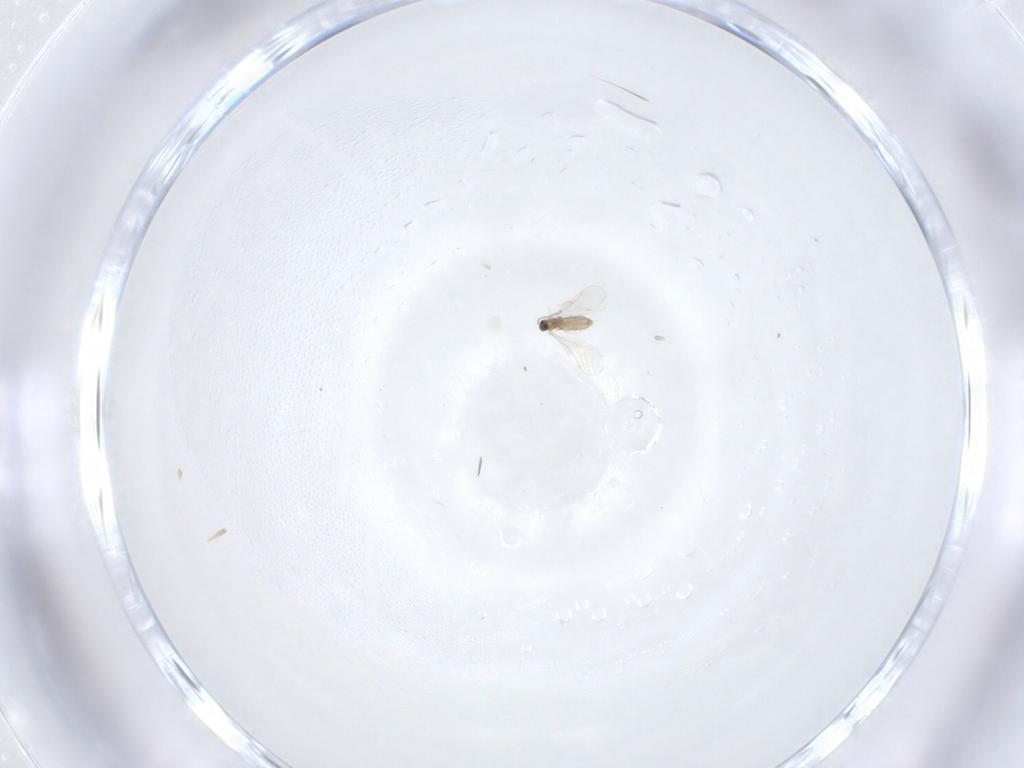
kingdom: Animalia
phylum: Arthropoda
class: Insecta
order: Diptera
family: Cecidomyiidae
